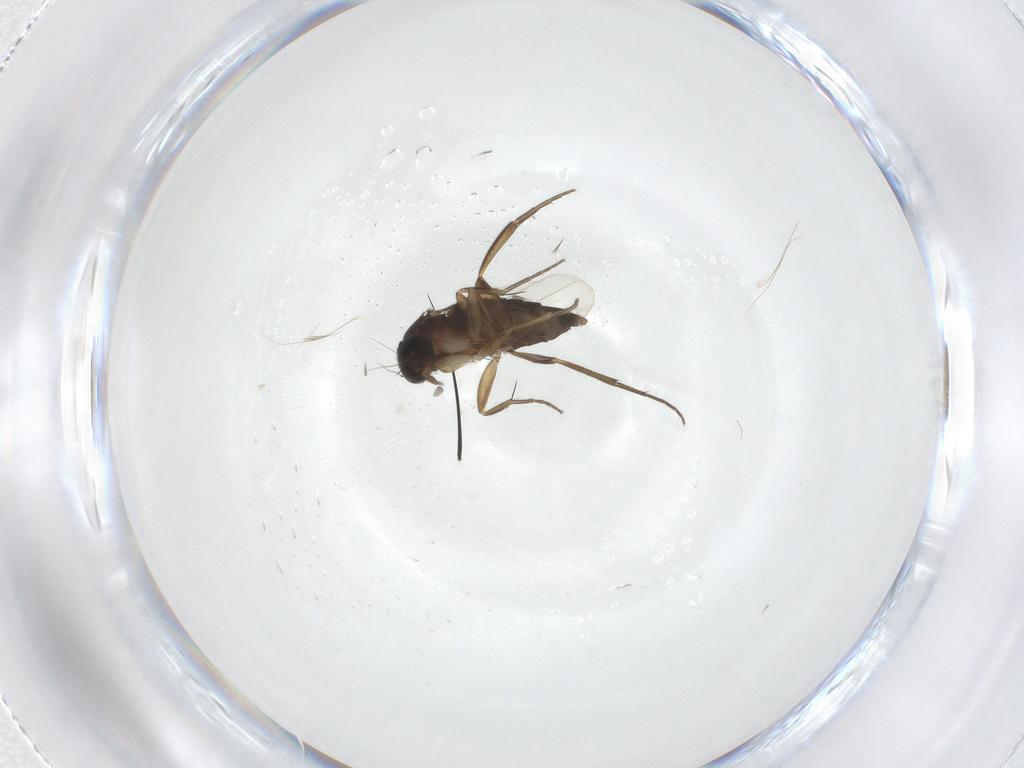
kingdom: Animalia
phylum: Arthropoda
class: Insecta
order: Diptera
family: Phoridae
